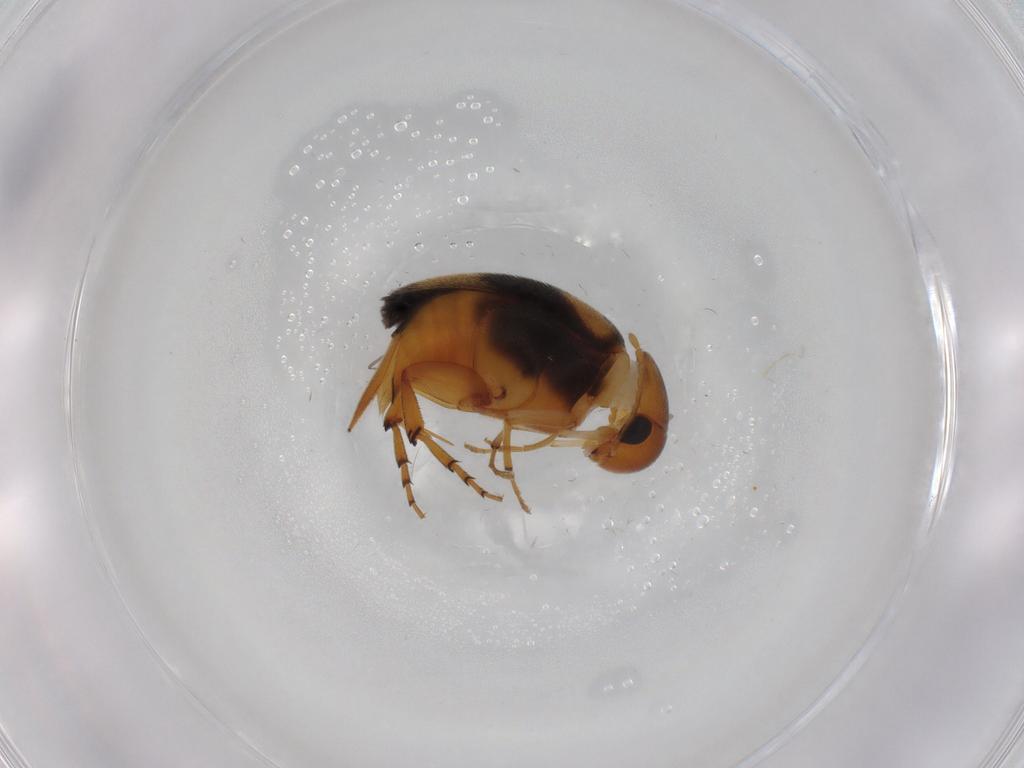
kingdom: Animalia
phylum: Arthropoda
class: Insecta
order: Coleoptera
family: Mordellidae
